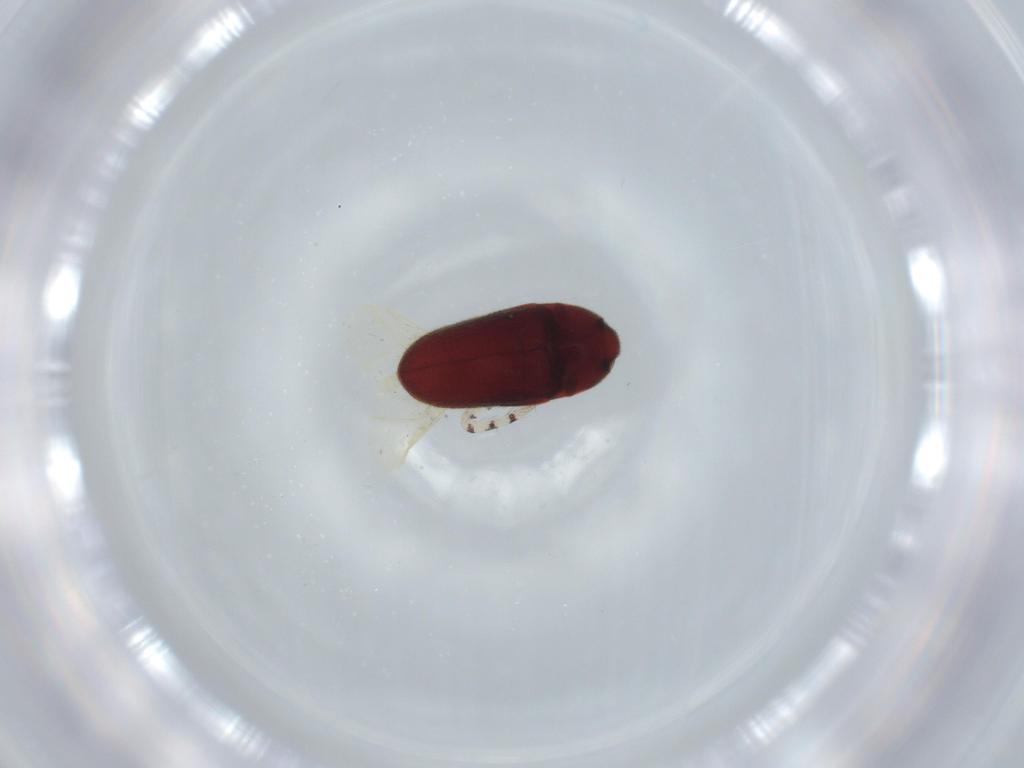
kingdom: Animalia
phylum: Arthropoda
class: Insecta
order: Coleoptera
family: Throscidae
